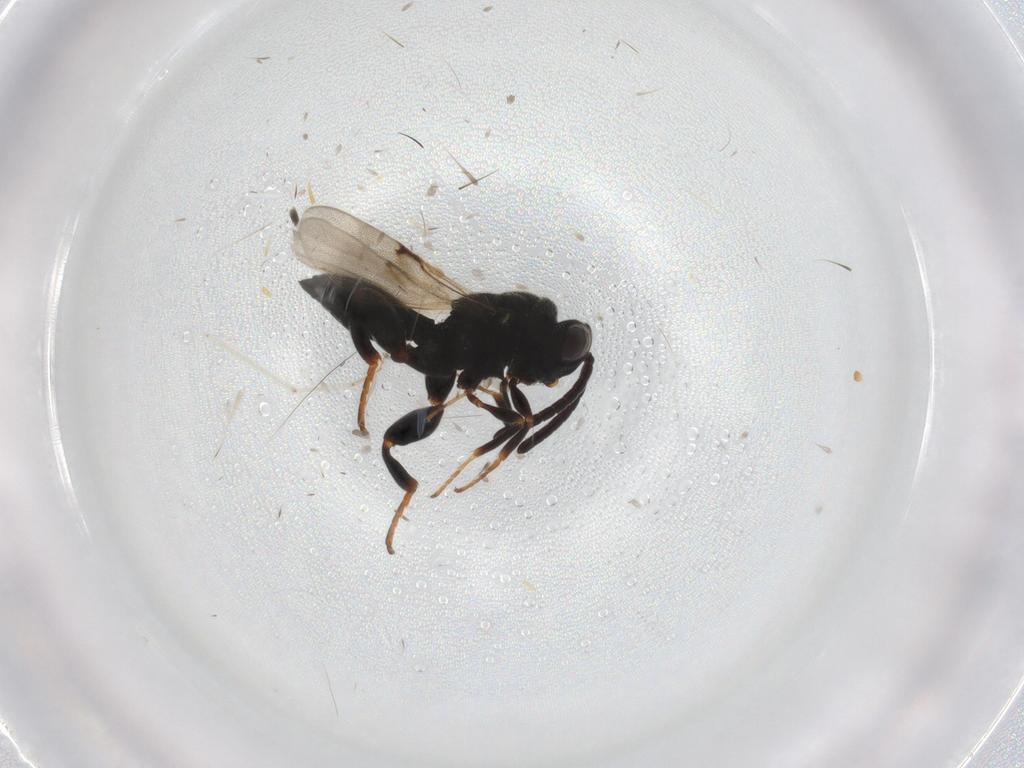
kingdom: Animalia
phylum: Arthropoda
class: Insecta
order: Hymenoptera
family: Chalcididae
